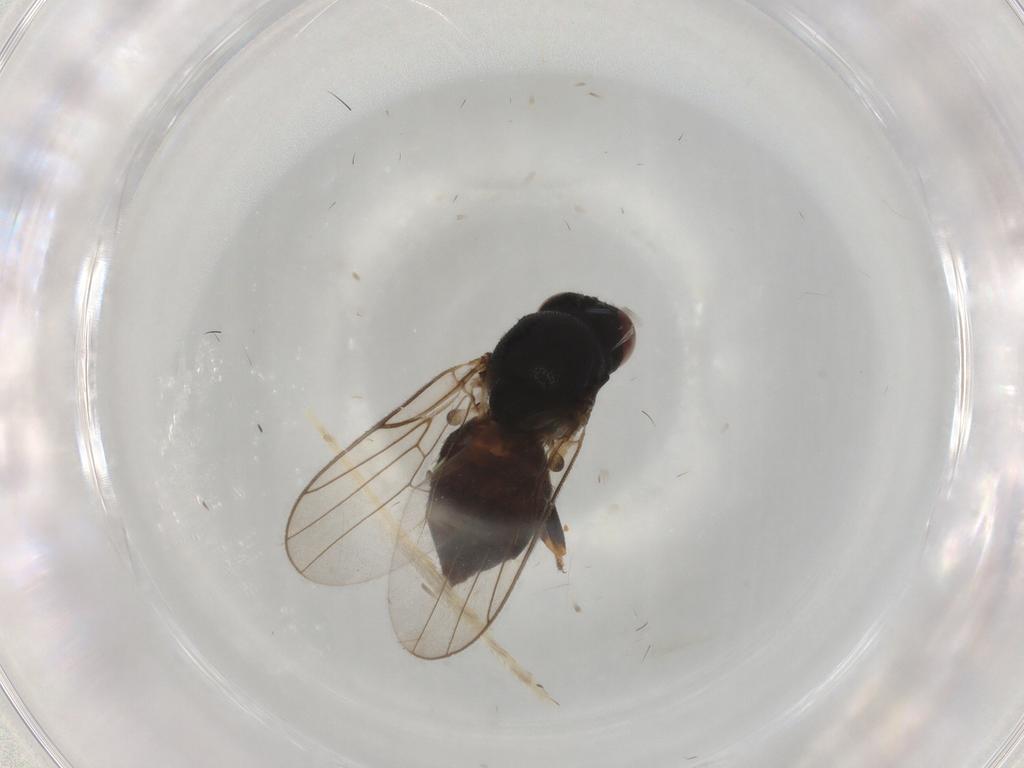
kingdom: Animalia
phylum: Arthropoda
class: Insecta
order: Diptera
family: Chloropidae
